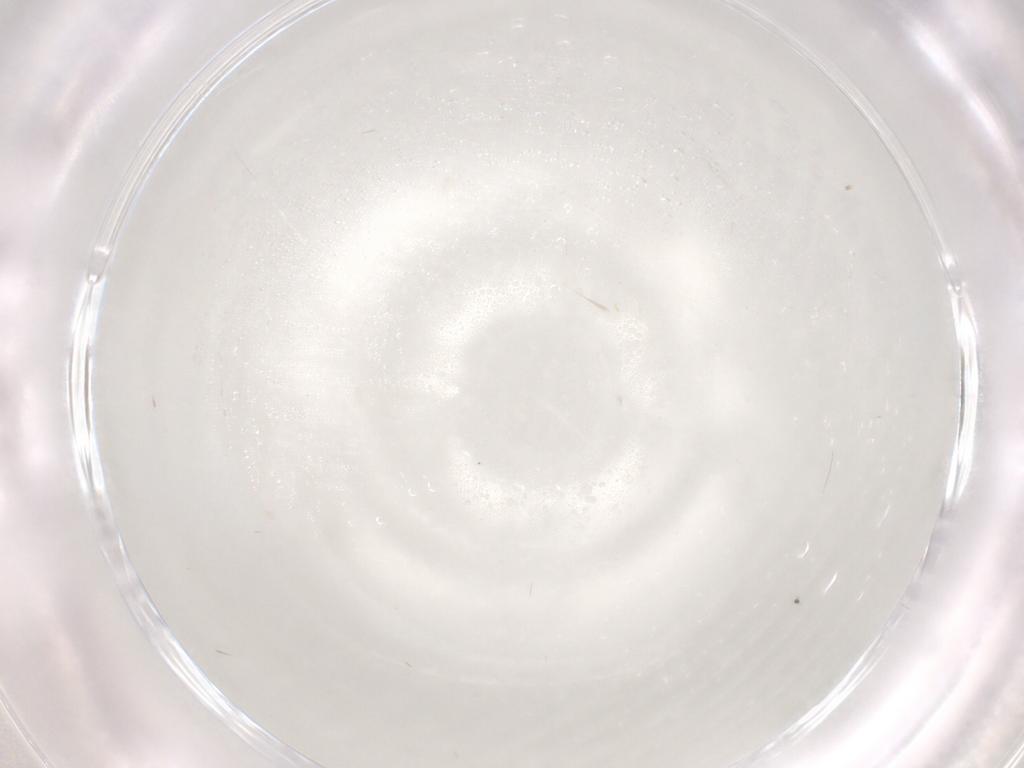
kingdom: Animalia
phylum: Arthropoda
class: Insecta
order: Diptera
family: Cecidomyiidae
